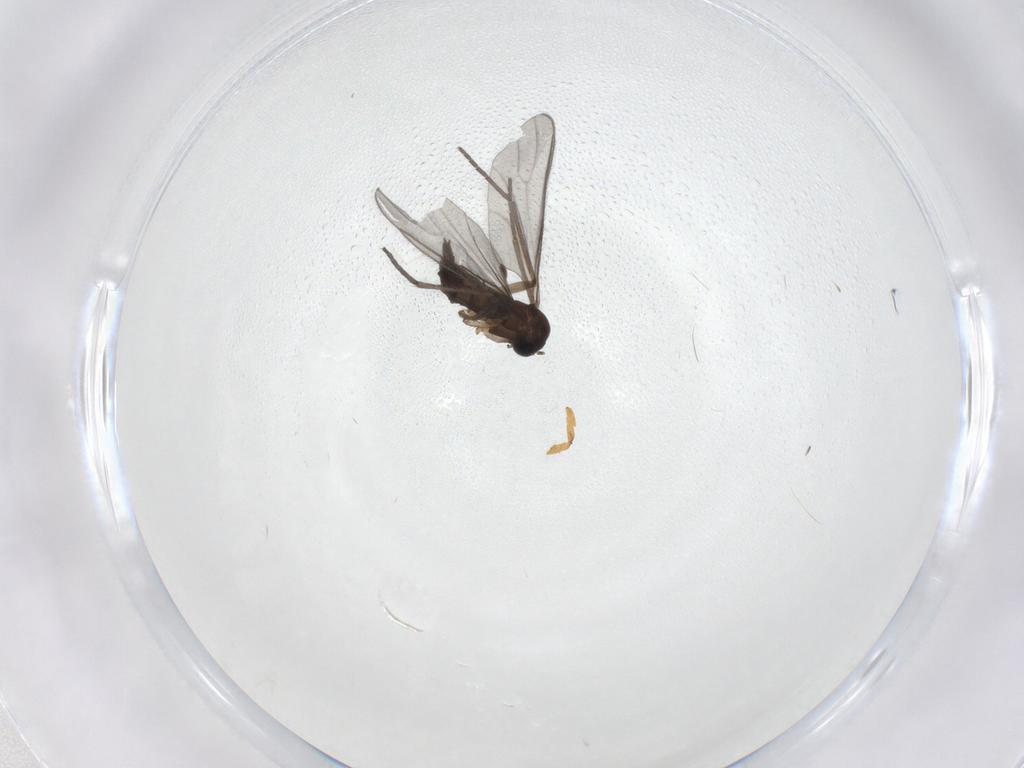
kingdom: Animalia
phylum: Arthropoda
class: Insecta
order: Diptera
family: Sciaridae
